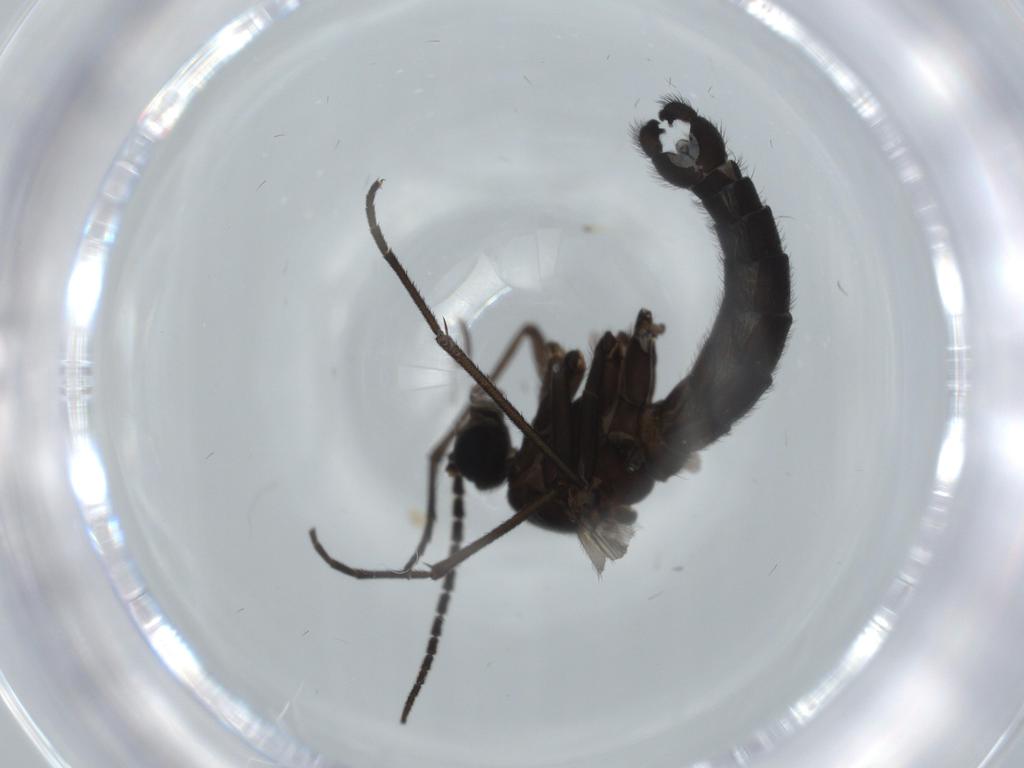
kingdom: Animalia
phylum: Arthropoda
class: Insecta
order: Diptera
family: Cecidomyiidae
